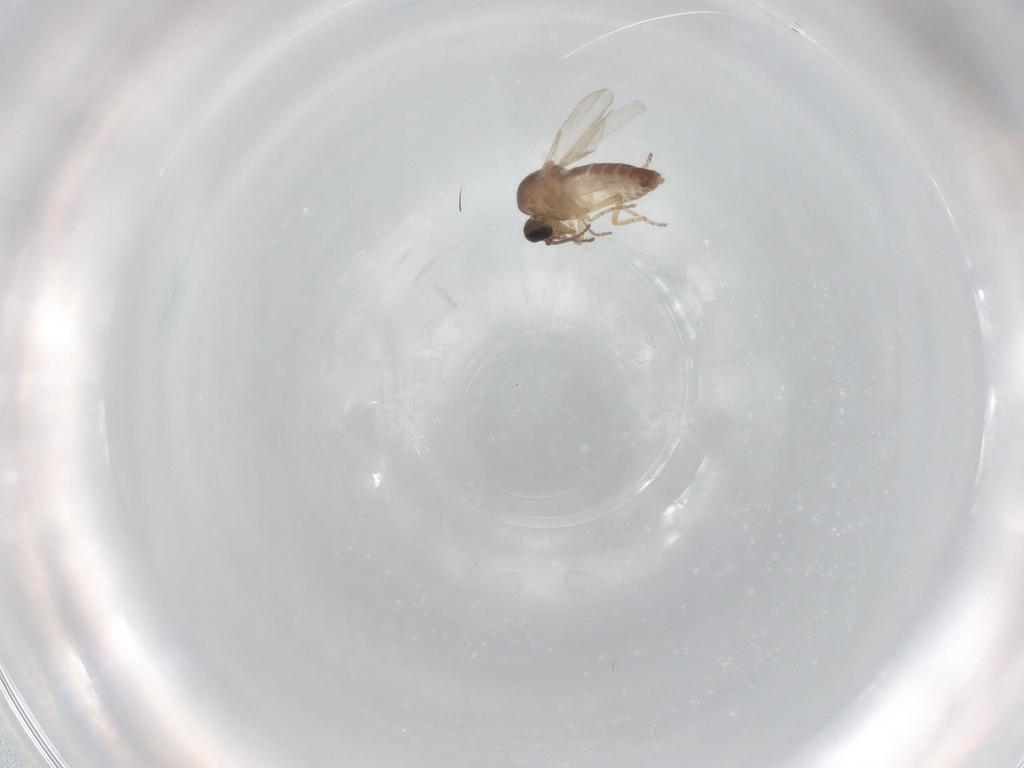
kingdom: Animalia
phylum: Arthropoda
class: Insecta
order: Diptera
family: Ceratopogonidae
